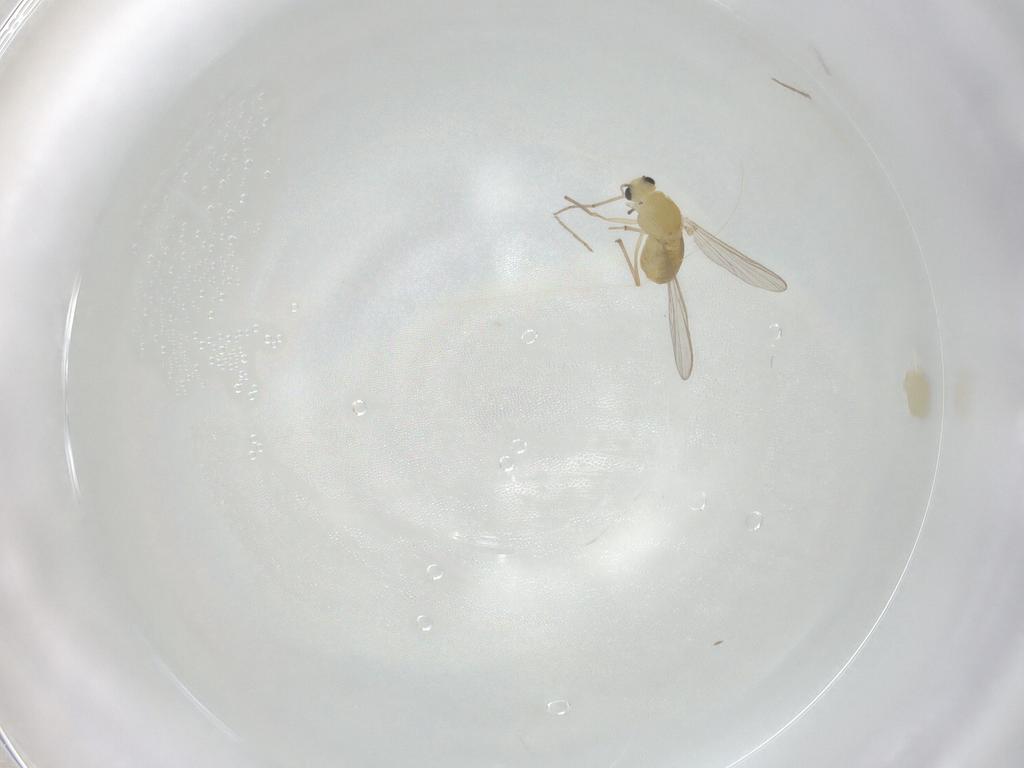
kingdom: Animalia
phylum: Arthropoda
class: Insecta
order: Diptera
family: Chironomidae
